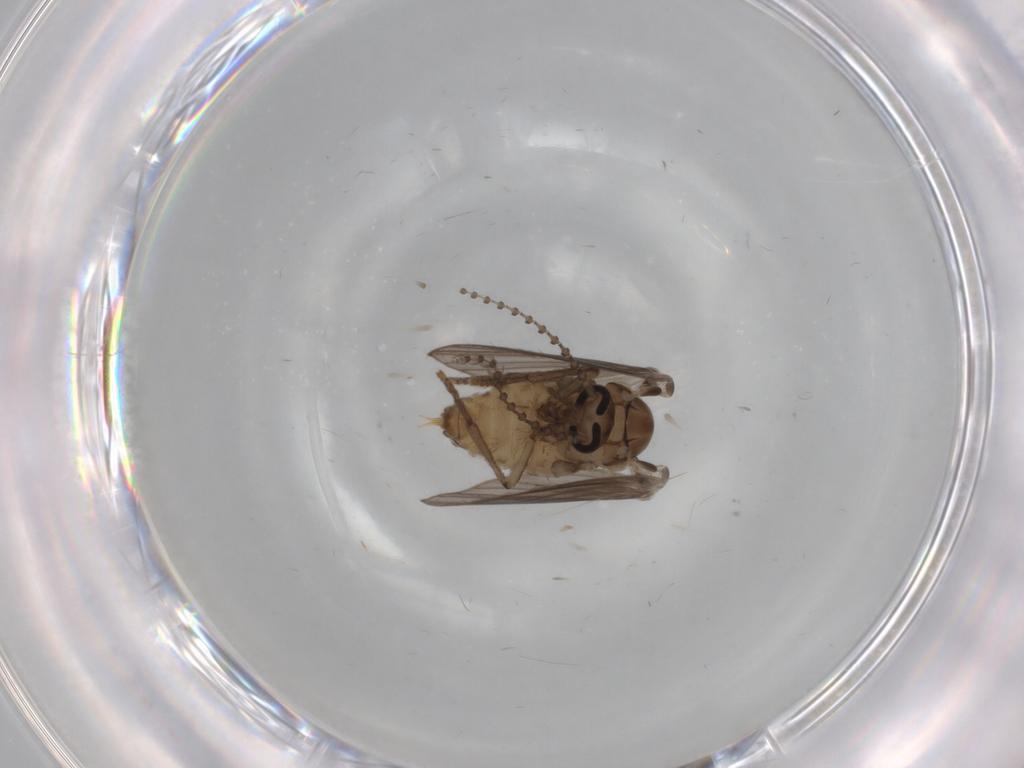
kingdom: Animalia
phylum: Arthropoda
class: Insecta
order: Diptera
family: Psychodidae
